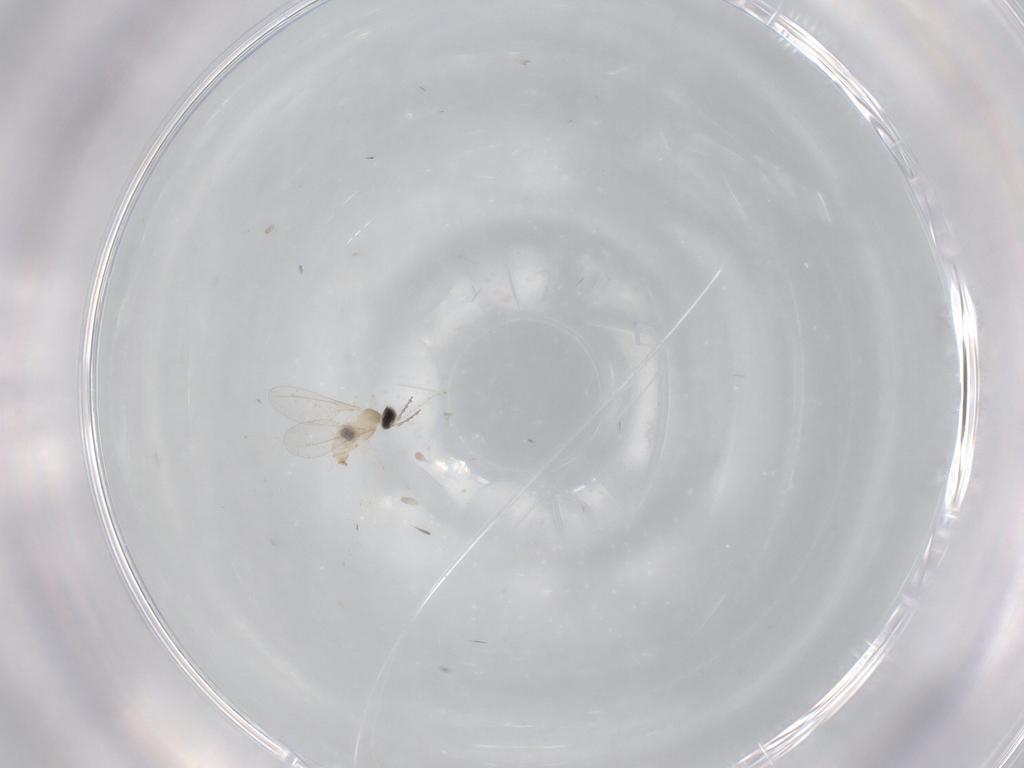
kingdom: Animalia
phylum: Arthropoda
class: Insecta
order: Diptera
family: Cecidomyiidae
